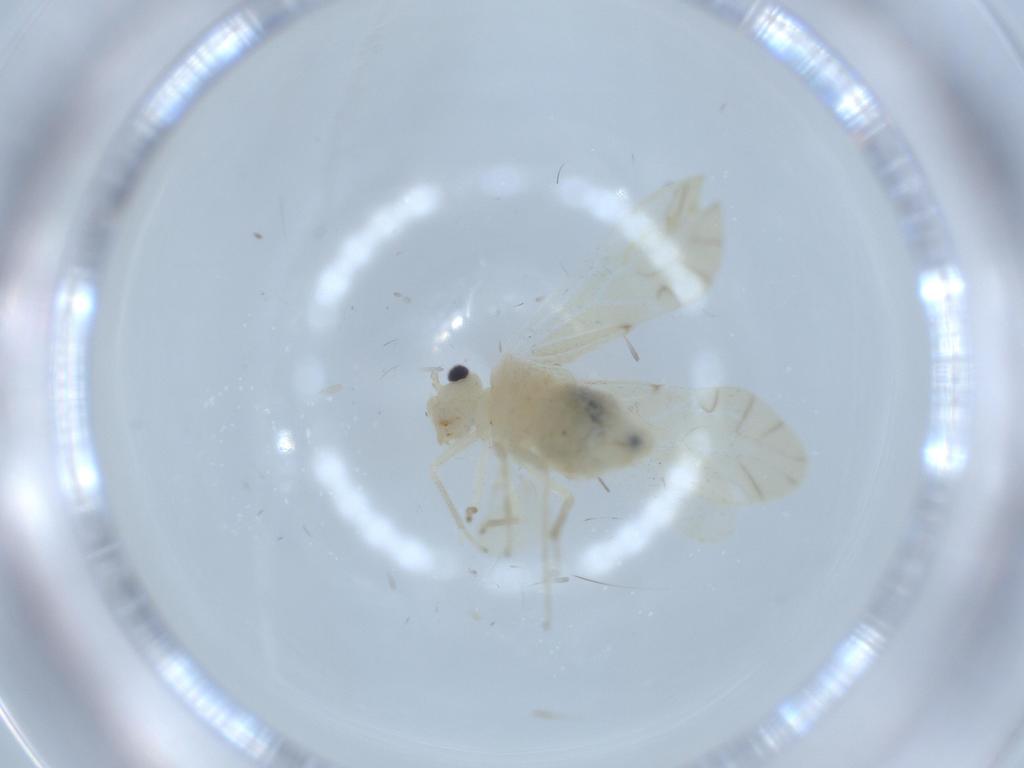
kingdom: Animalia
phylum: Arthropoda
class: Insecta
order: Psocodea
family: Caeciliusidae
